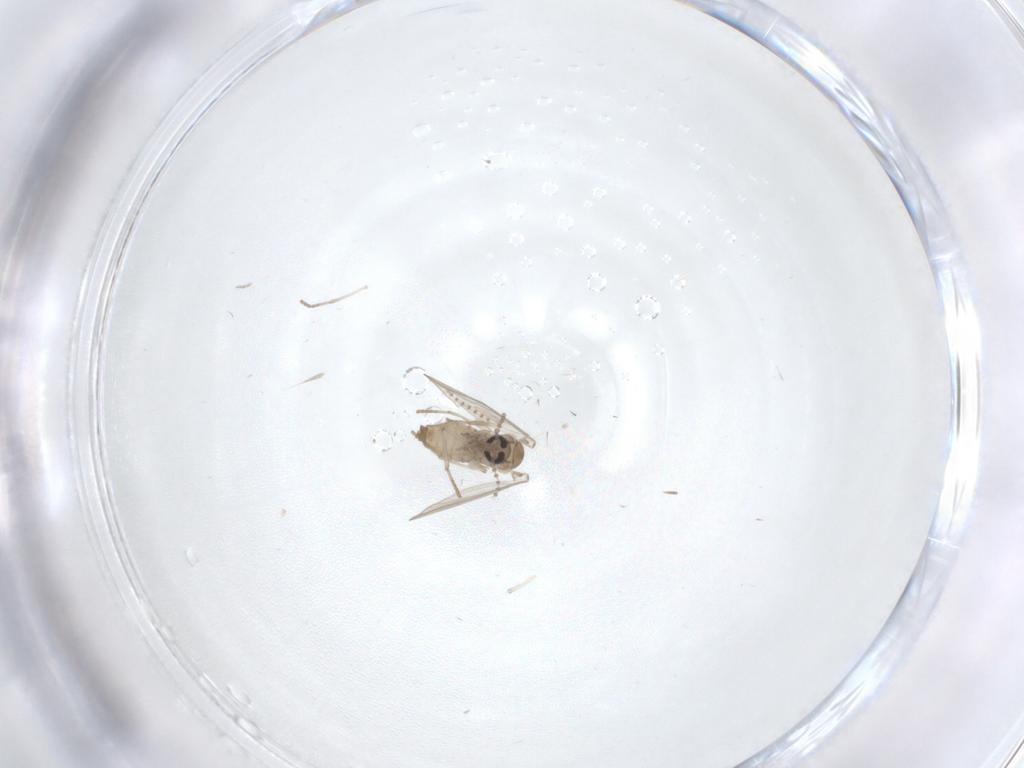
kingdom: Animalia
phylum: Arthropoda
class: Insecta
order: Diptera
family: Psychodidae
